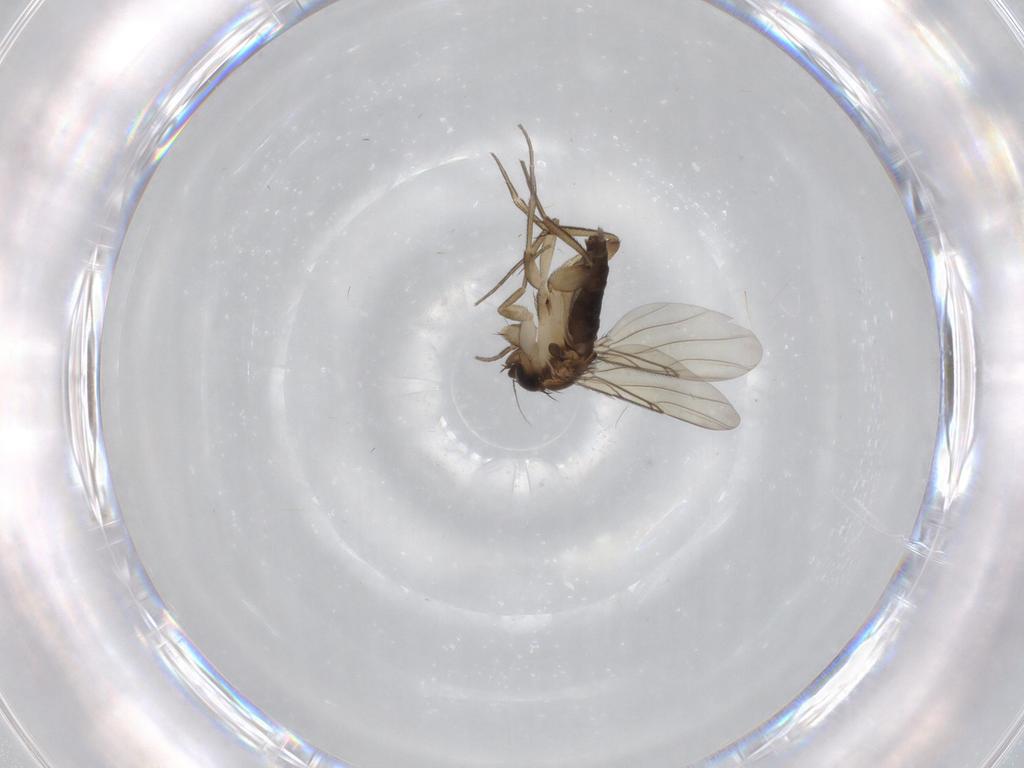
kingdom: Animalia
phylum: Arthropoda
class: Insecta
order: Diptera
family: Phoridae
